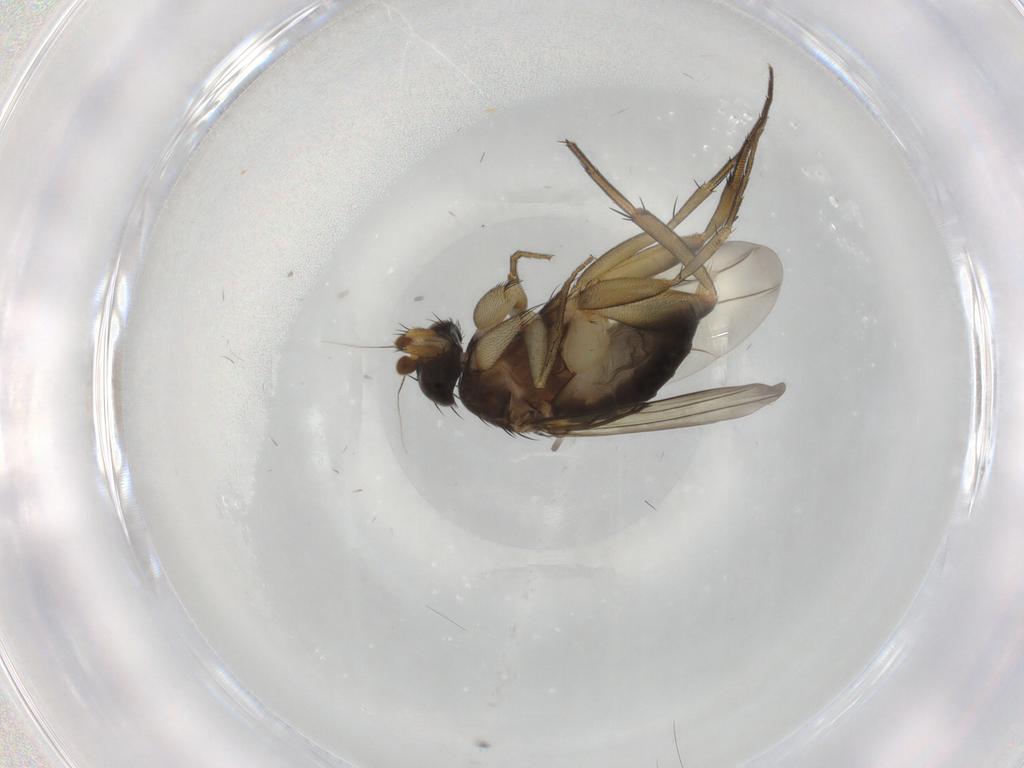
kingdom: Animalia
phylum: Arthropoda
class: Insecta
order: Diptera
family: Phoridae
